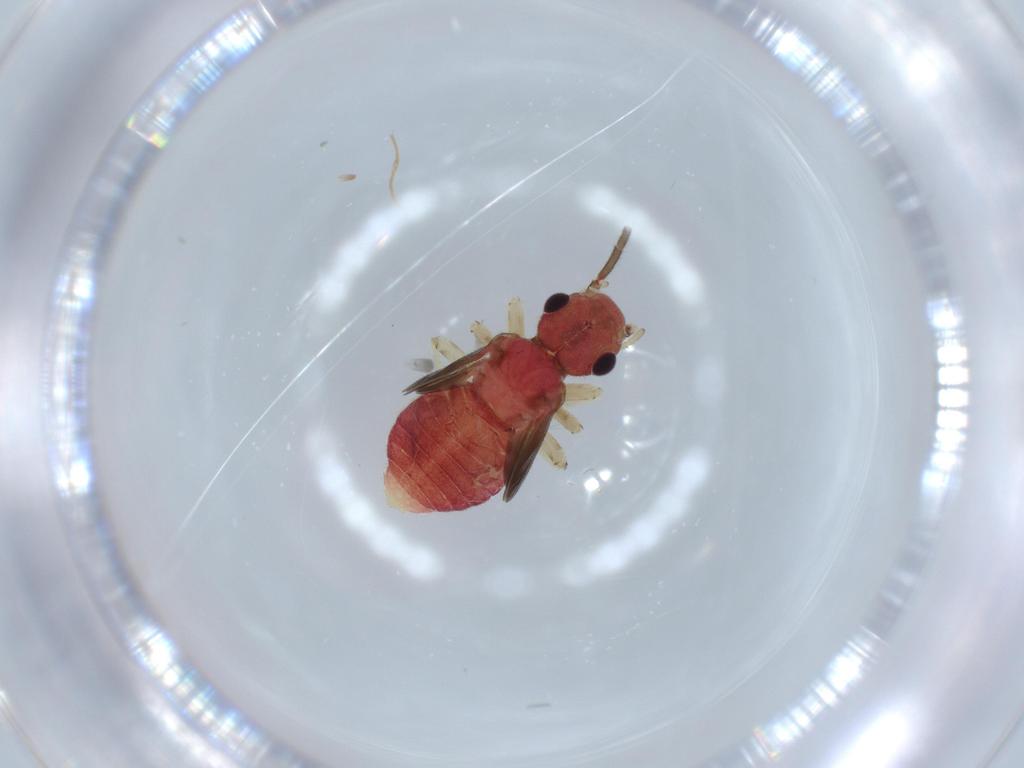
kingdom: Animalia
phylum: Arthropoda
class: Insecta
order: Psocodea
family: Caeciliusidae
